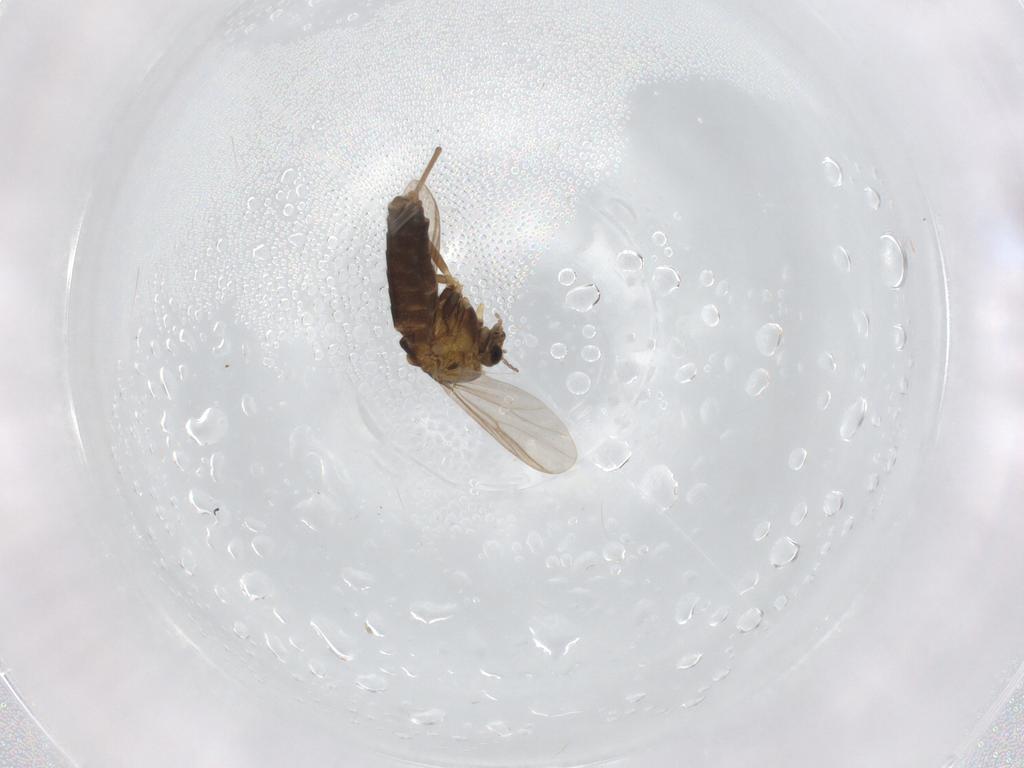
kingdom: Animalia
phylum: Arthropoda
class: Insecta
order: Diptera
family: Chironomidae
